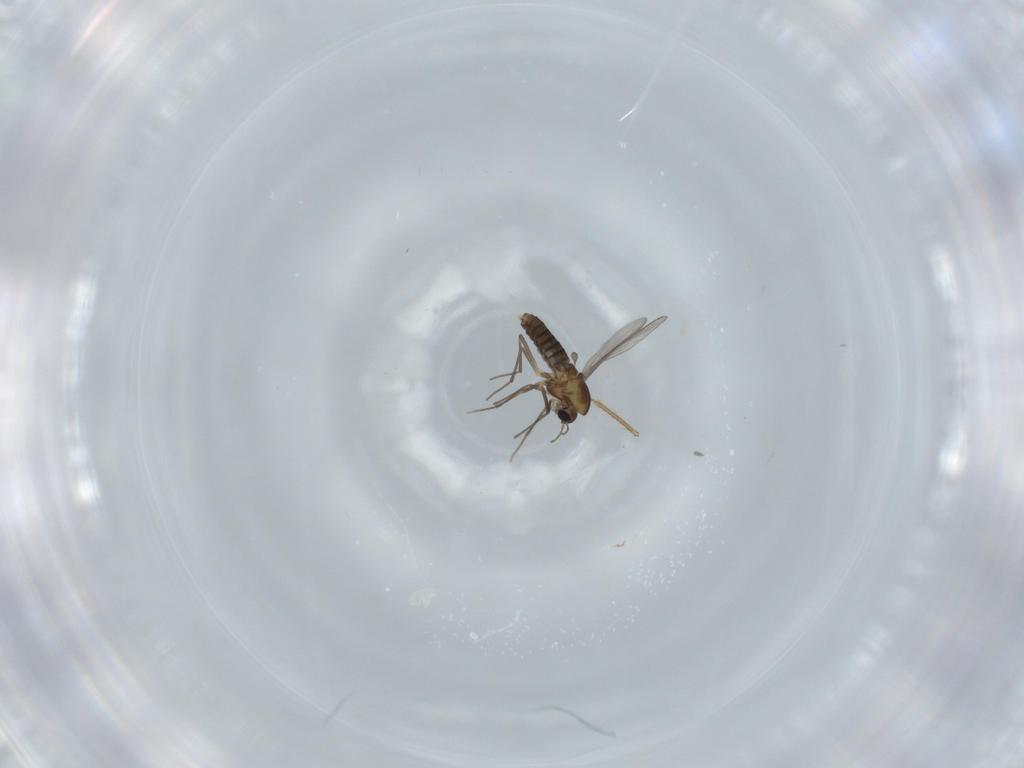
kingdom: Animalia
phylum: Arthropoda
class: Insecta
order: Diptera
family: Chironomidae
